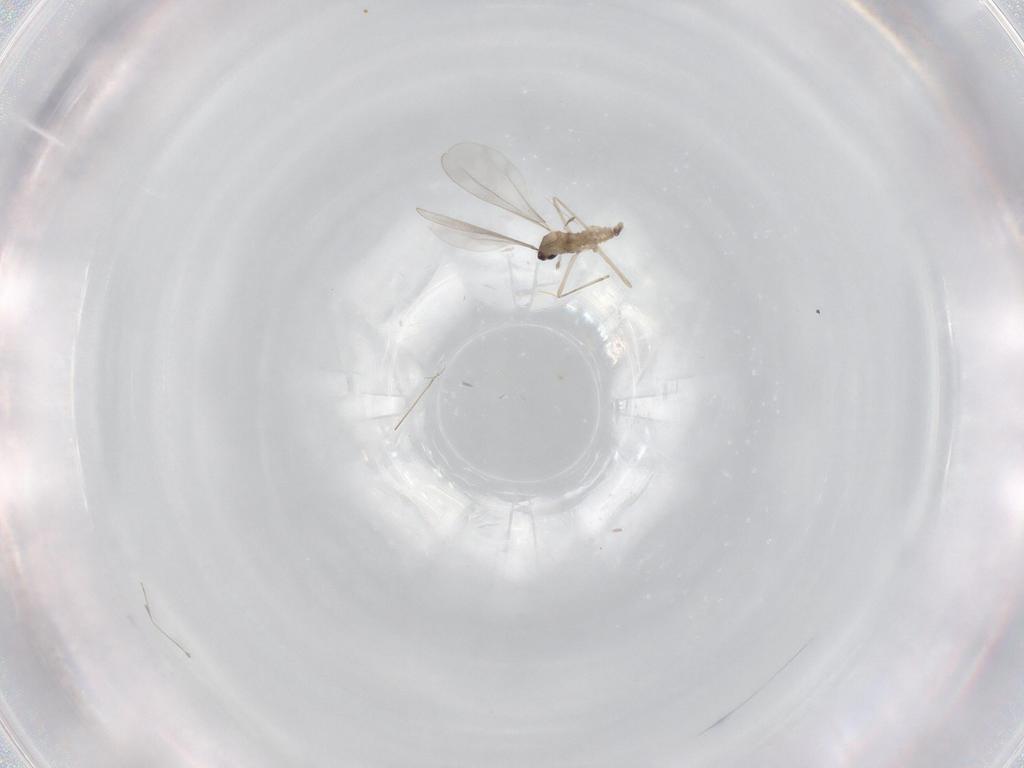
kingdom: Animalia
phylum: Arthropoda
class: Insecta
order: Diptera
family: Cecidomyiidae
